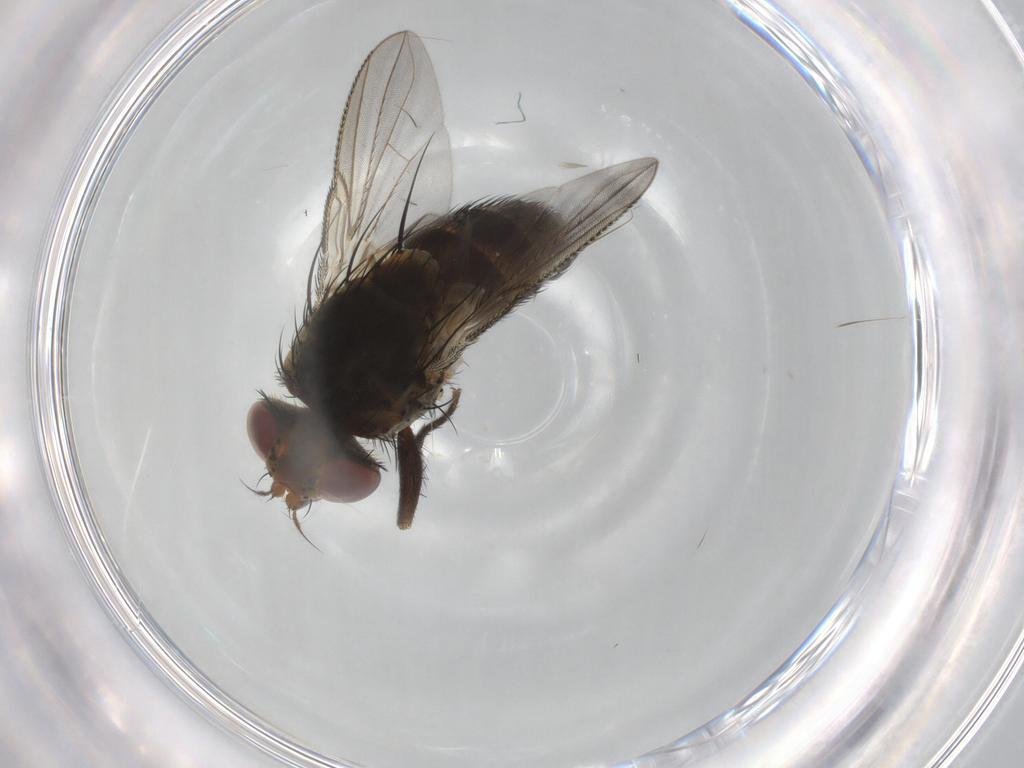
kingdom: Animalia
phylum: Arthropoda
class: Insecta
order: Diptera
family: Tachinidae
